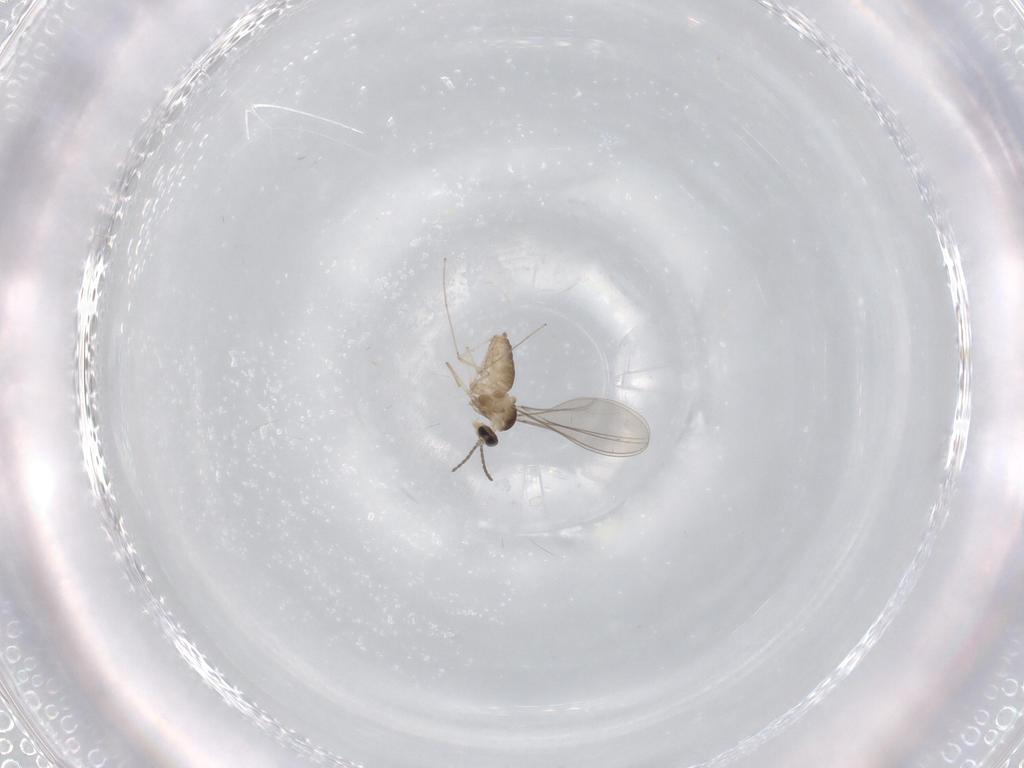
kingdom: Animalia
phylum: Arthropoda
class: Insecta
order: Diptera
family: Cecidomyiidae
